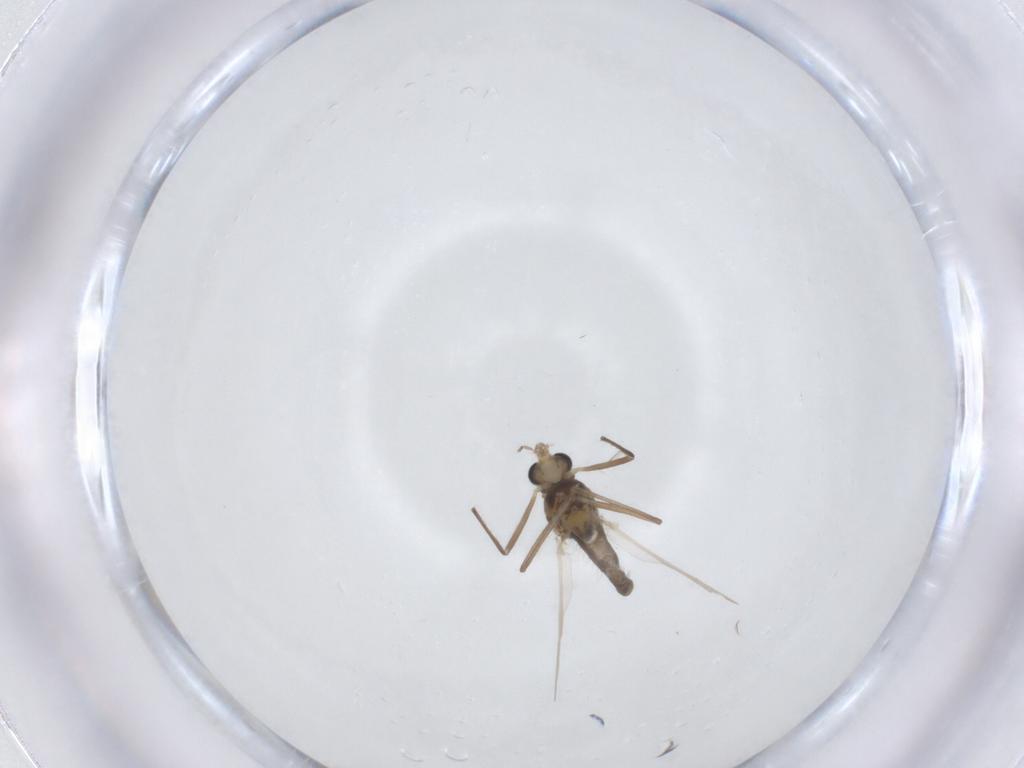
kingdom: Animalia
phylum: Arthropoda
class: Insecta
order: Diptera
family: Chironomidae
